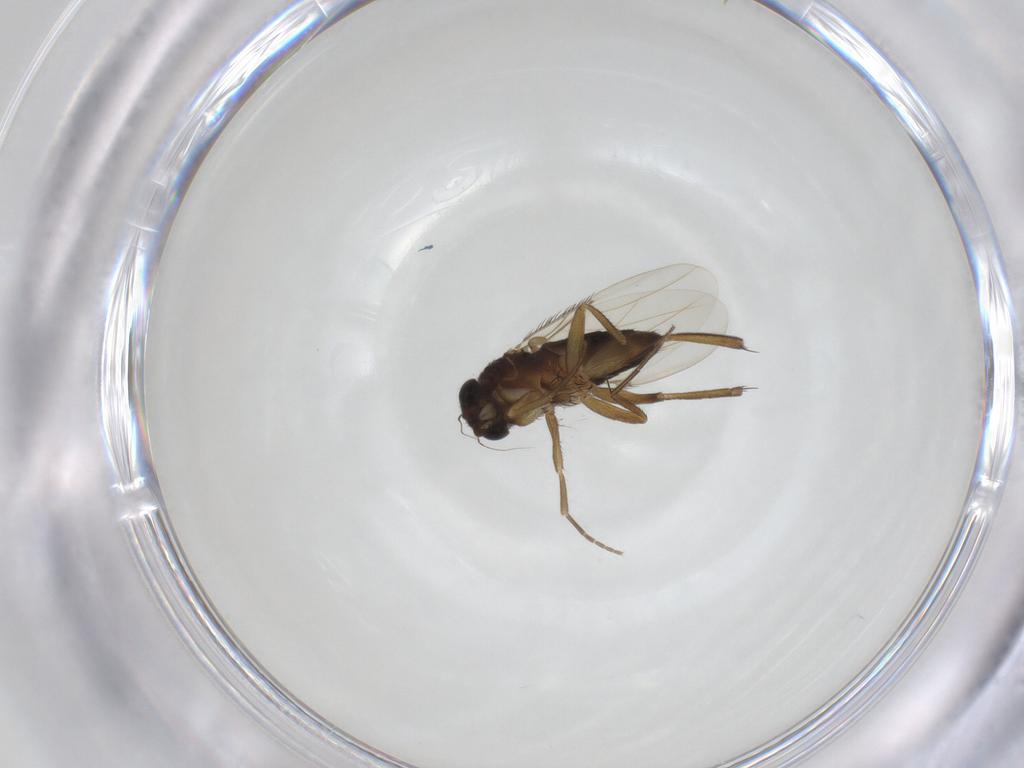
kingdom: Animalia
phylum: Arthropoda
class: Insecta
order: Diptera
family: Phoridae
